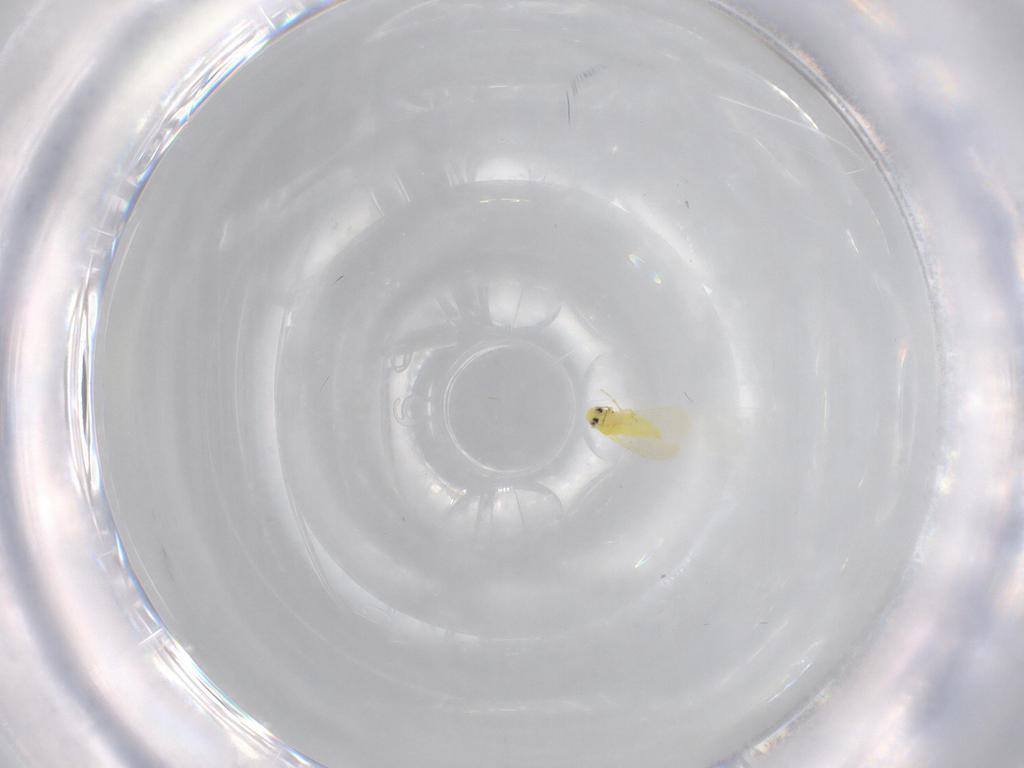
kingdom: Animalia
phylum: Arthropoda
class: Insecta
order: Hemiptera
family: Aleyrodidae
